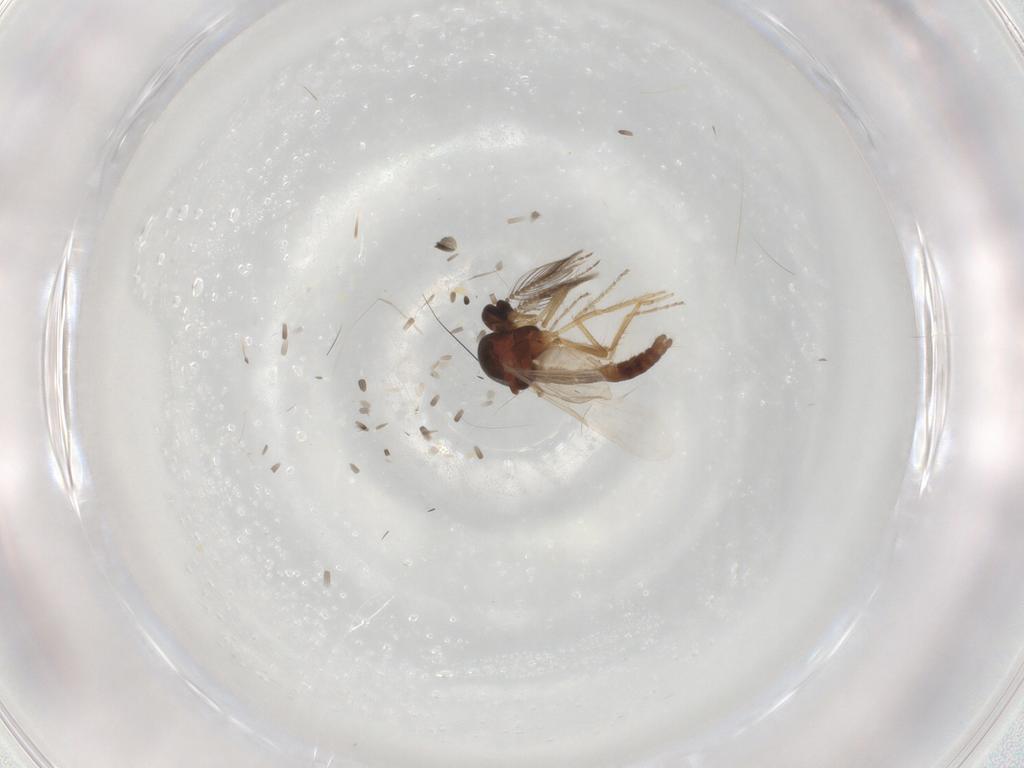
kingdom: Animalia
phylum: Arthropoda
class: Insecta
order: Diptera
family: Ceratopogonidae
